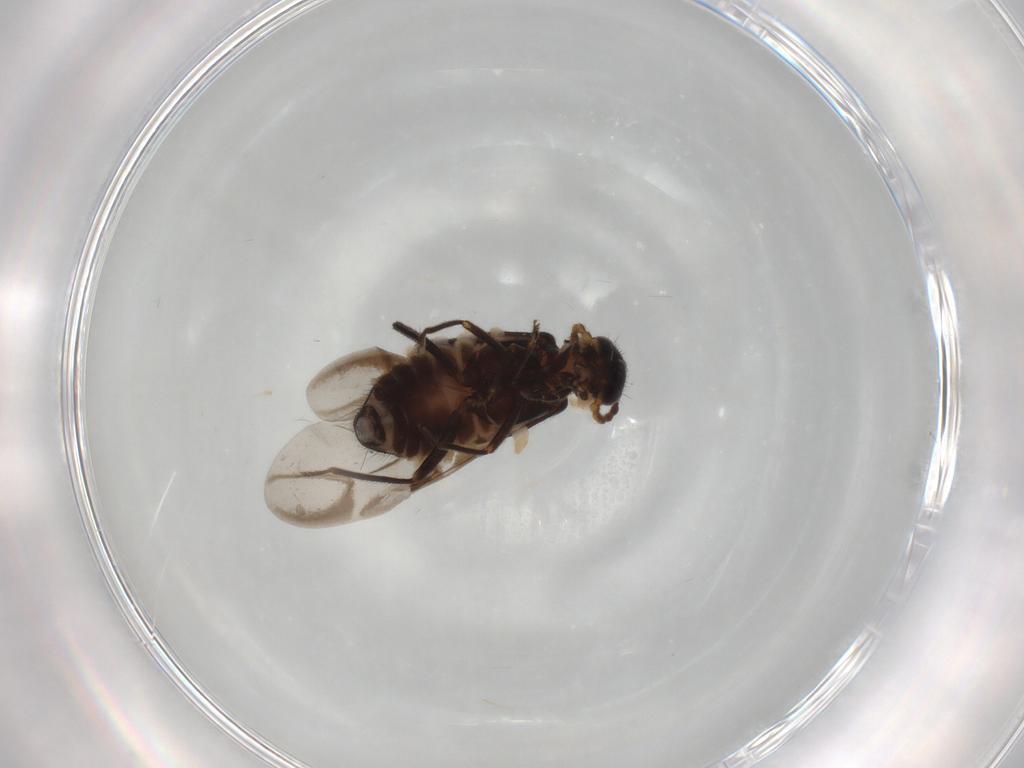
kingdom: Animalia
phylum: Arthropoda
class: Insecta
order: Coleoptera
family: Melyridae
